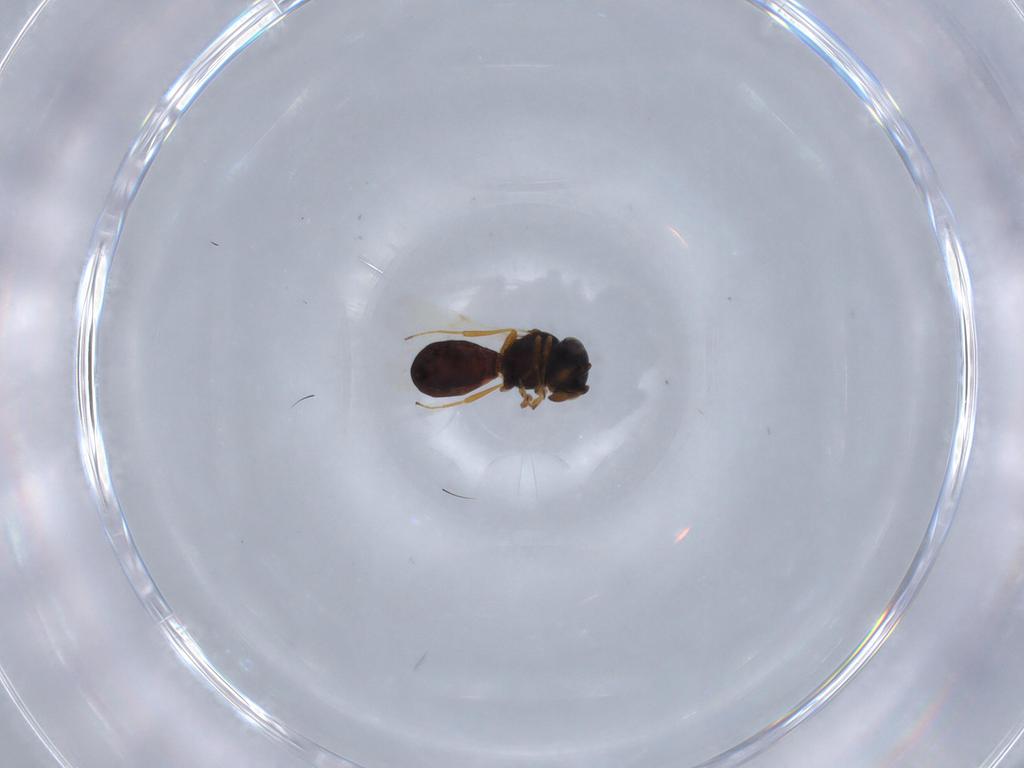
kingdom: Animalia
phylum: Arthropoda
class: Insecta
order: Hymenoptera
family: Scelionidae
